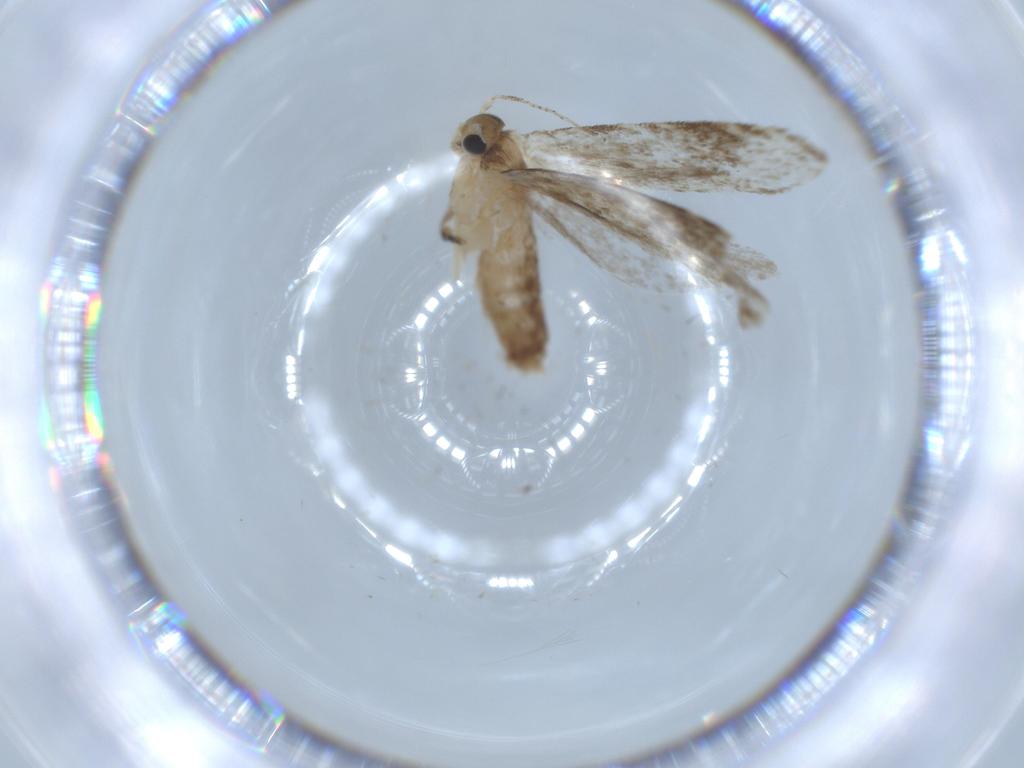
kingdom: Animalia
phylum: Arthropoda
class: Insecta
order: Lepidoptera
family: Tineidae
